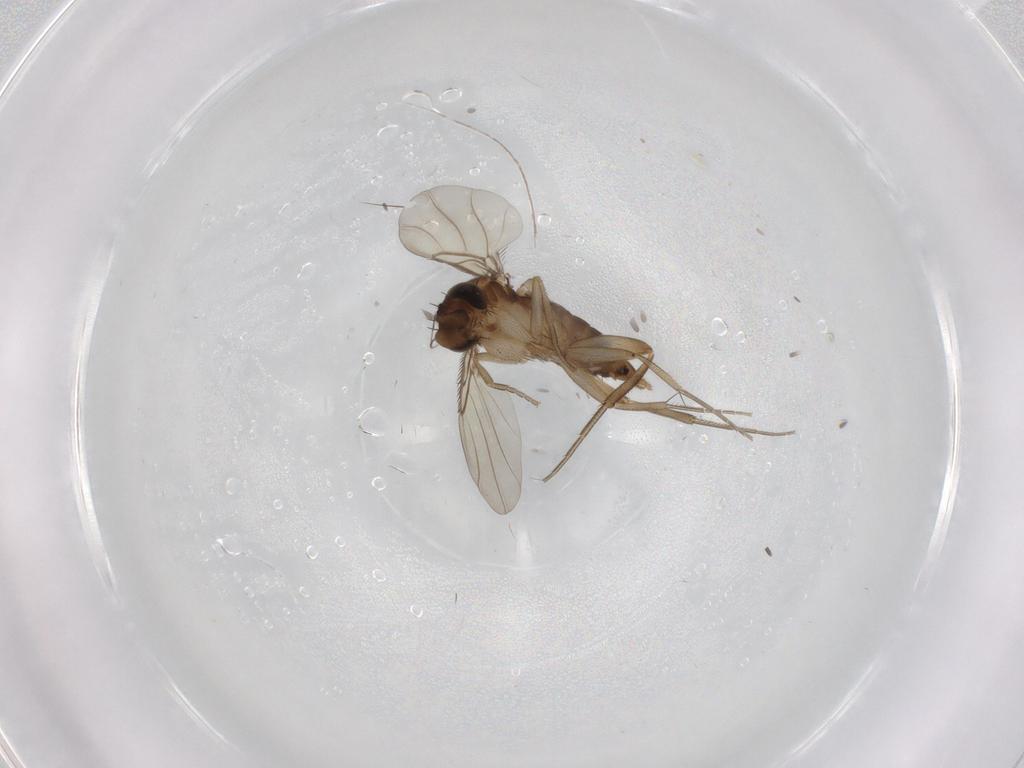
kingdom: Animalia
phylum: Arthropoda
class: Insecta
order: Diptera
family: Phoridae
